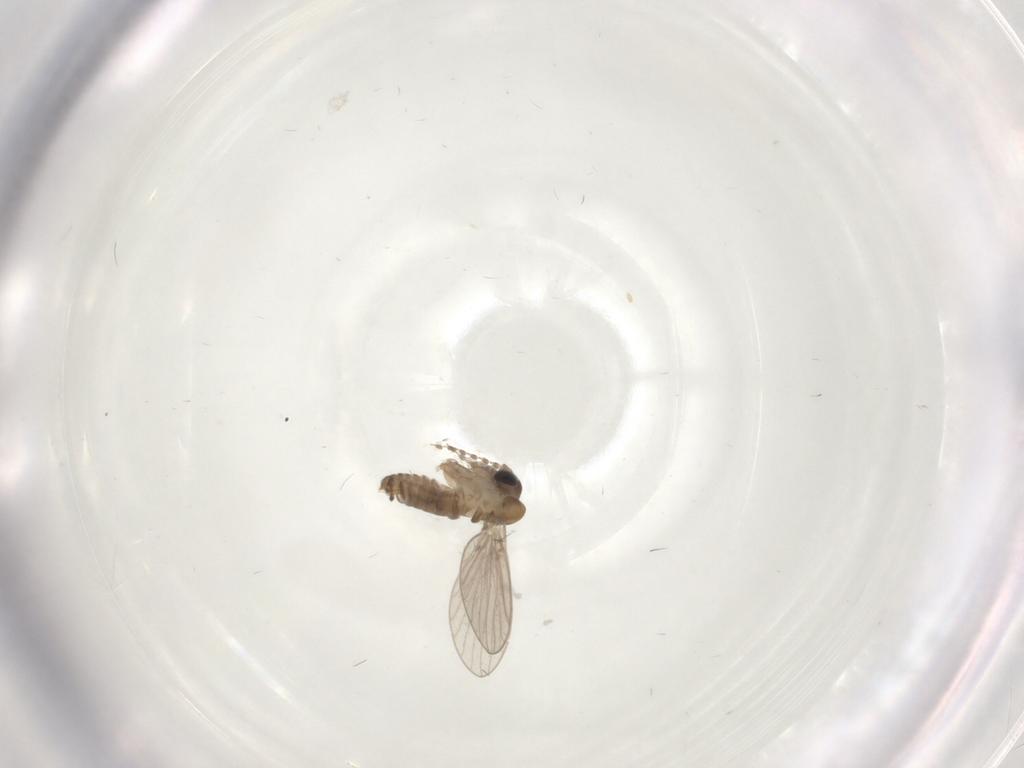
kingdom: Animalia
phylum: Arthropoda
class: Insecta
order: Diptera
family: Psychodidae
